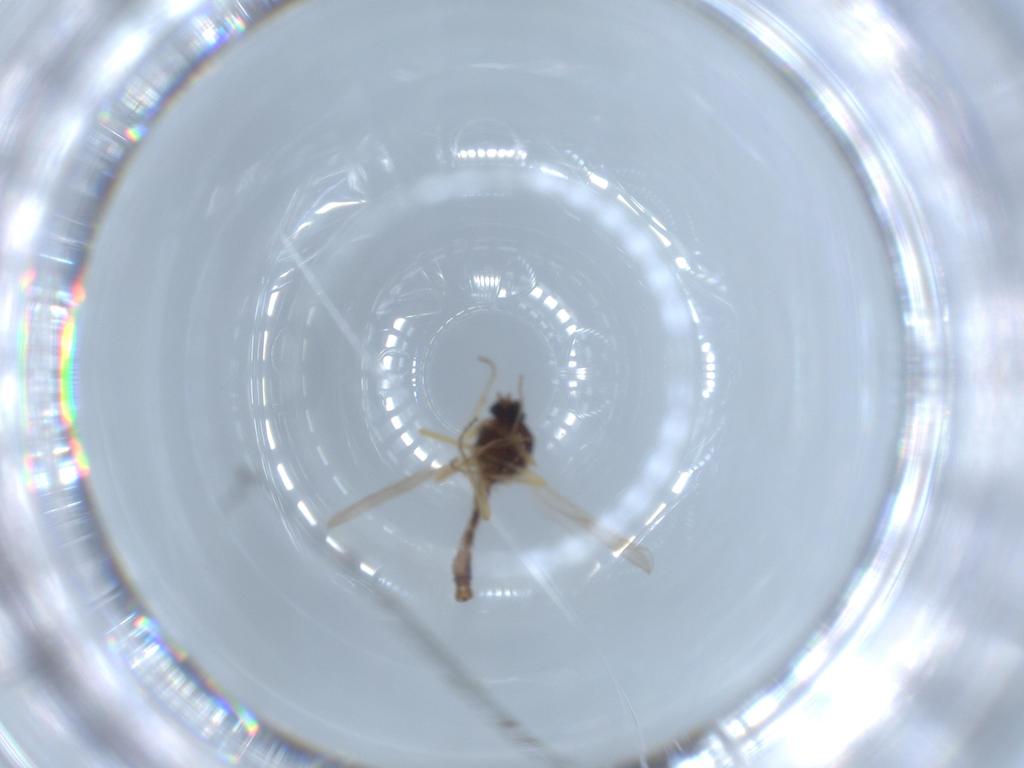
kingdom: Animalia
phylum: Arthropoda
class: Insecta
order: Diptera
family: Ceratopogonidae
